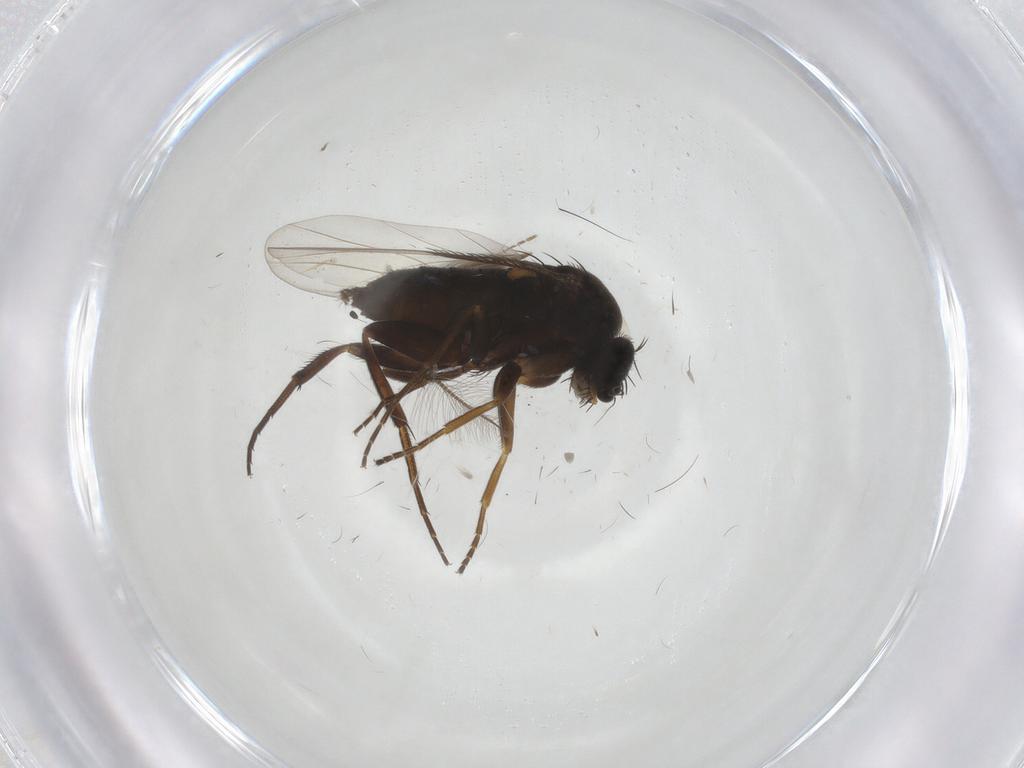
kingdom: Animalia
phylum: Arthropoda
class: Insecta
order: Diptera
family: Phoridae
